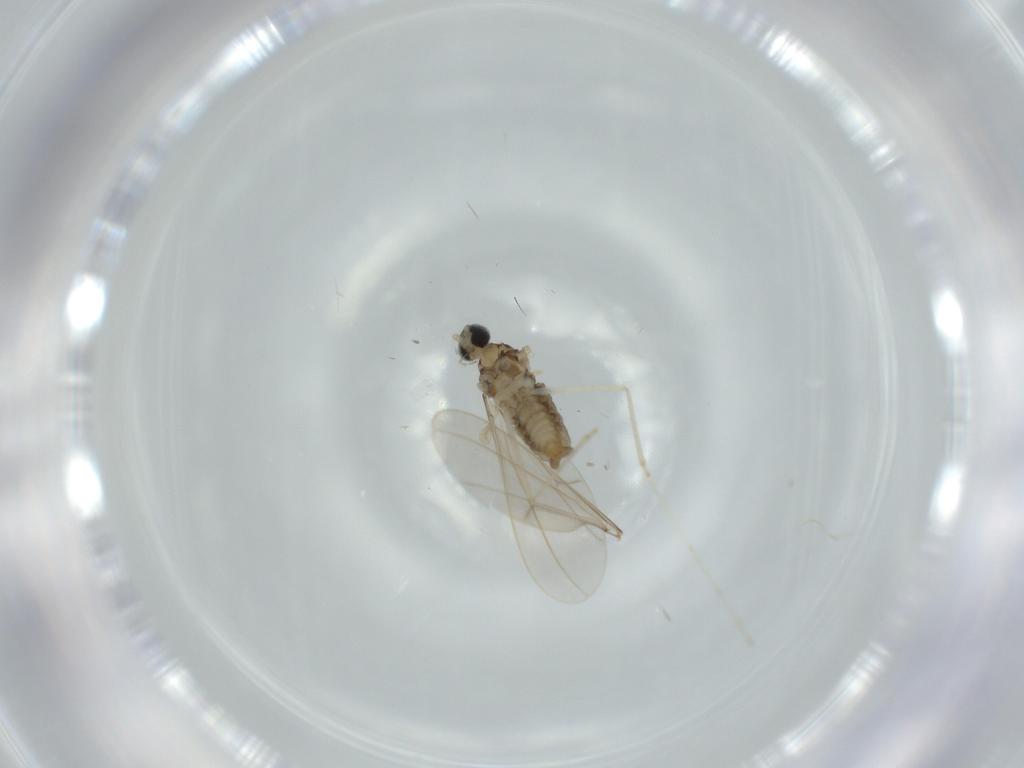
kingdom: Animalia
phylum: Arthropoda
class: Insecta
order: Diptera
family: Cecidomyiidae
